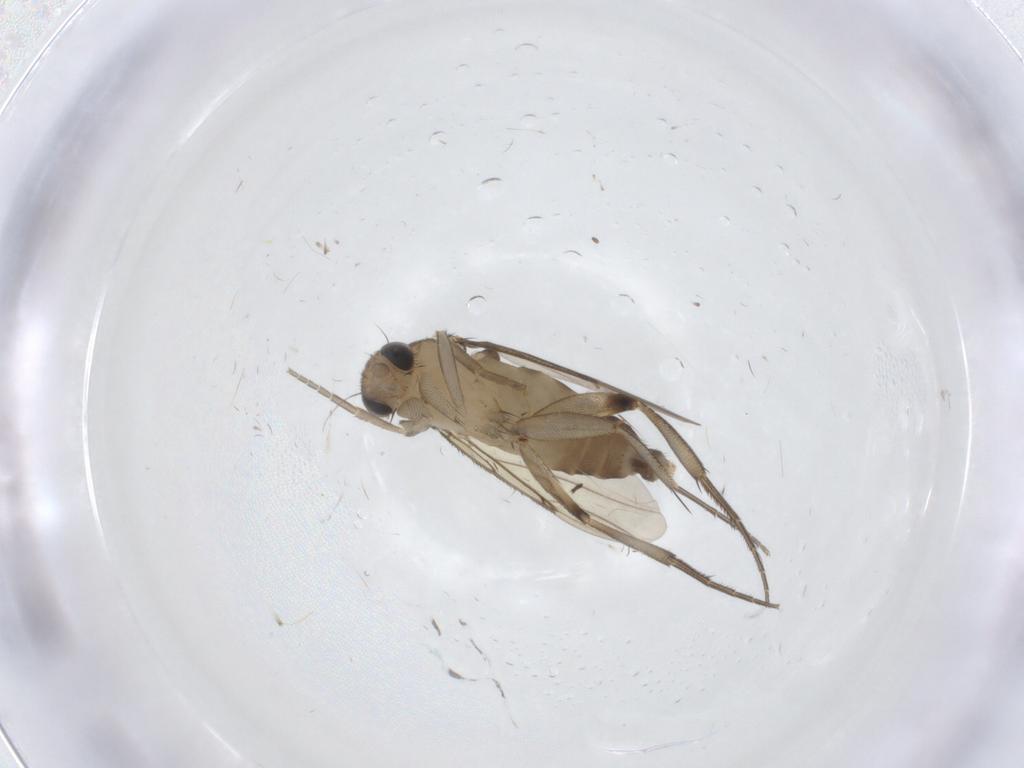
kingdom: Animalia
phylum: Arthropoda
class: Insecta
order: Diptera
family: Phoridae
